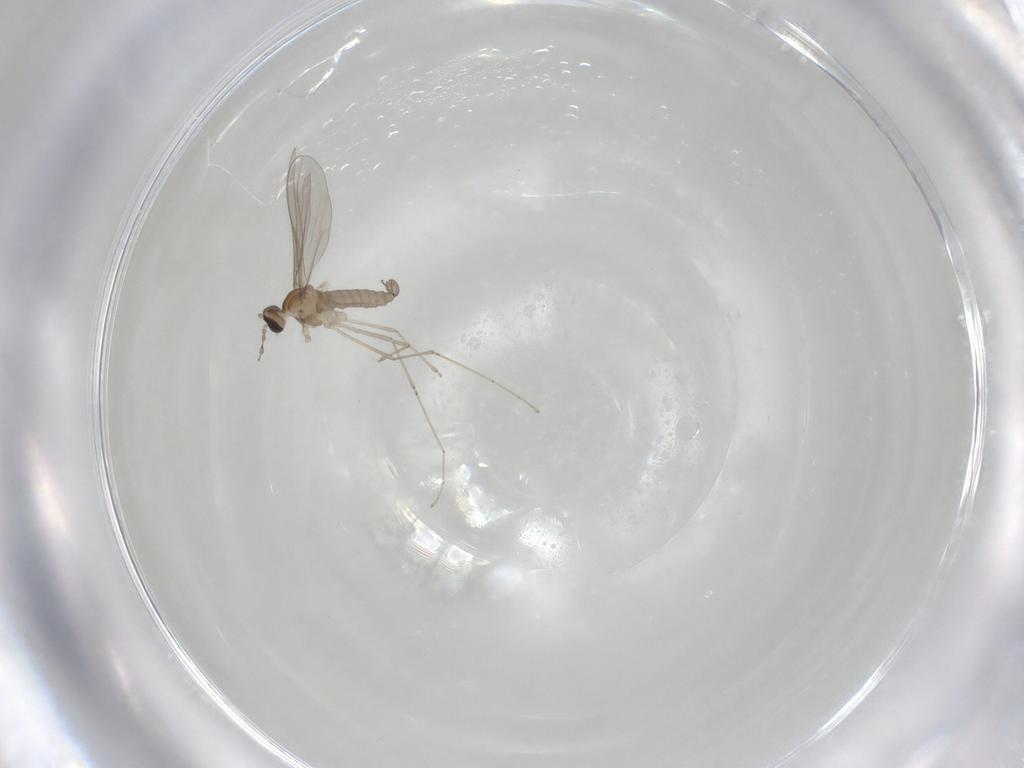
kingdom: Animalia
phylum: Arthropoda
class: Insecta
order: Diptera
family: Cecidomyiidae
